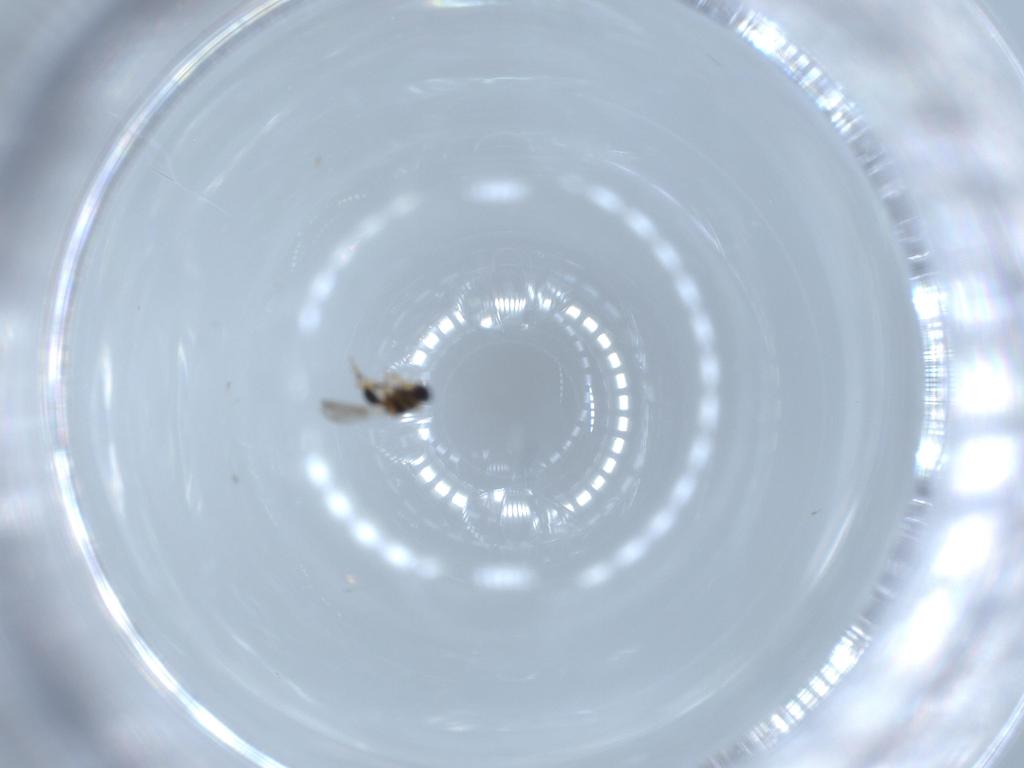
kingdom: Animalia
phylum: Arthropoda
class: Insecta
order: Hymenoptera
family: Platygastridae
